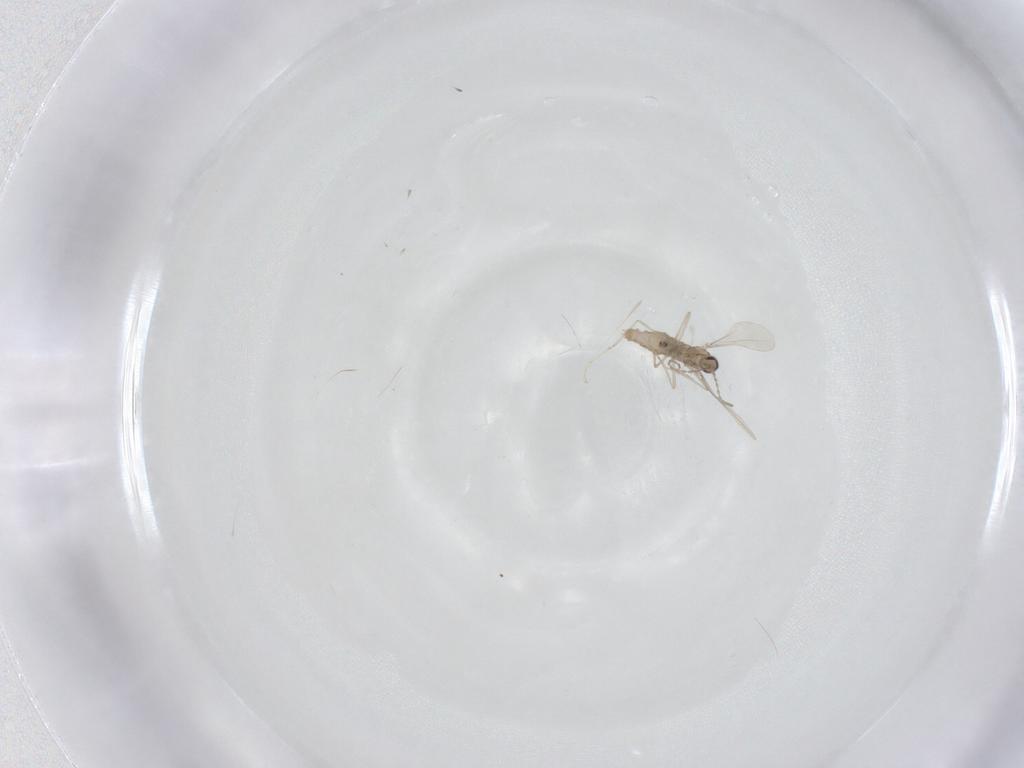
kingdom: Animalia
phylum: Arthropoda
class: Insecta
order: Diptera
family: Cecidomyiidae
